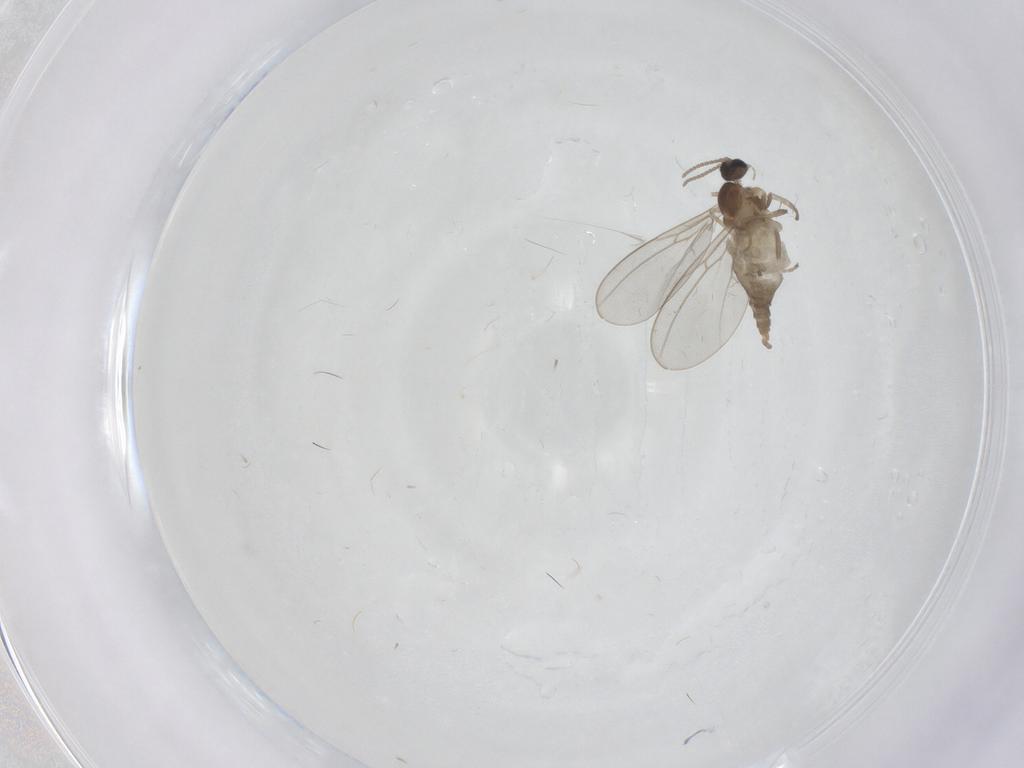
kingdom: Animalia
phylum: Arthropoda
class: Insecta
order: Diptera
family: Cecidomyiidae
